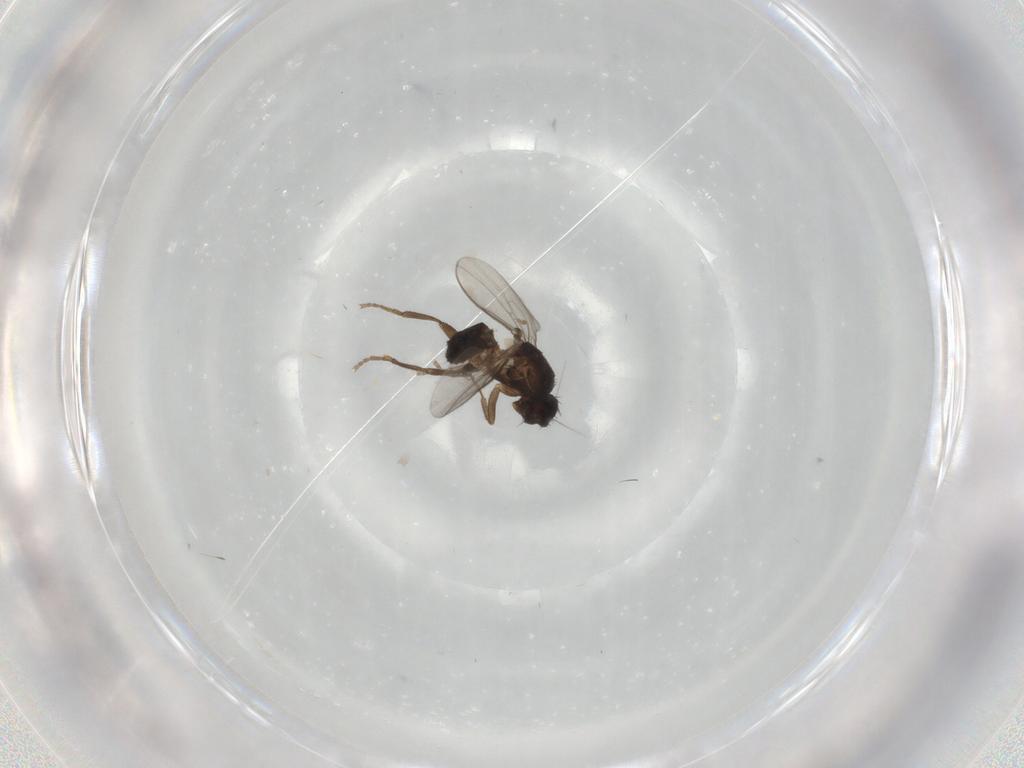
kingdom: Animalia
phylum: Arthropoda
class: Insecta
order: Diptera
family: Sphaeroceridae
